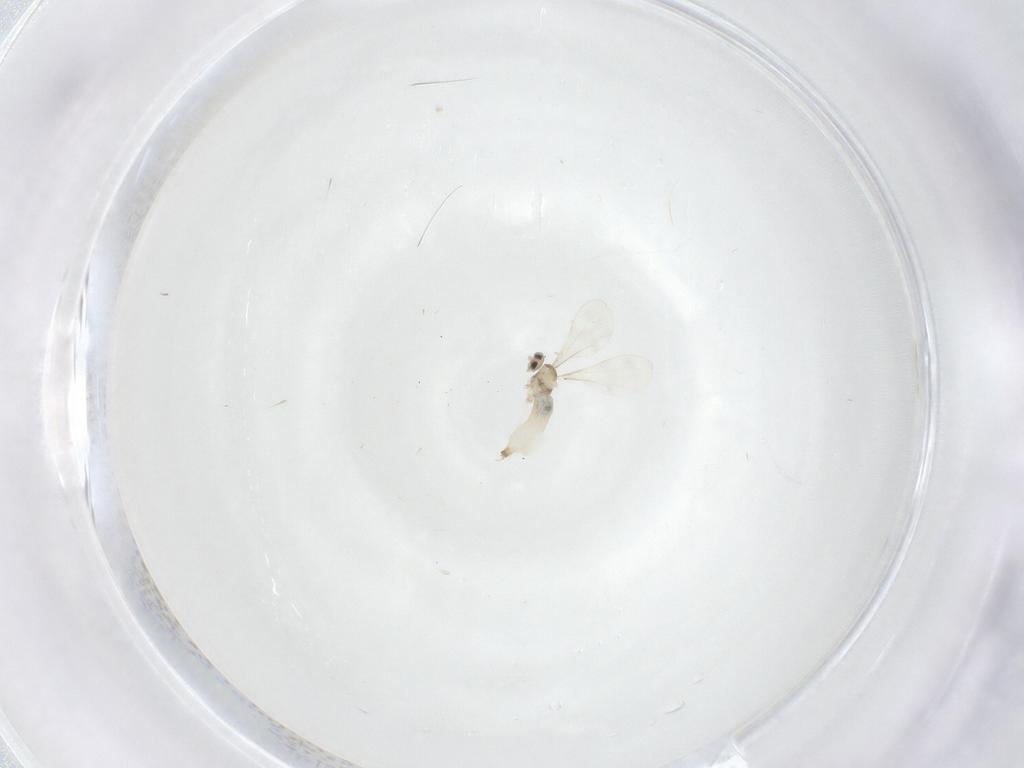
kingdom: Animalia
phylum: Arthropoda
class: Insecta
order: Diptera
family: Cecidomyiidae
